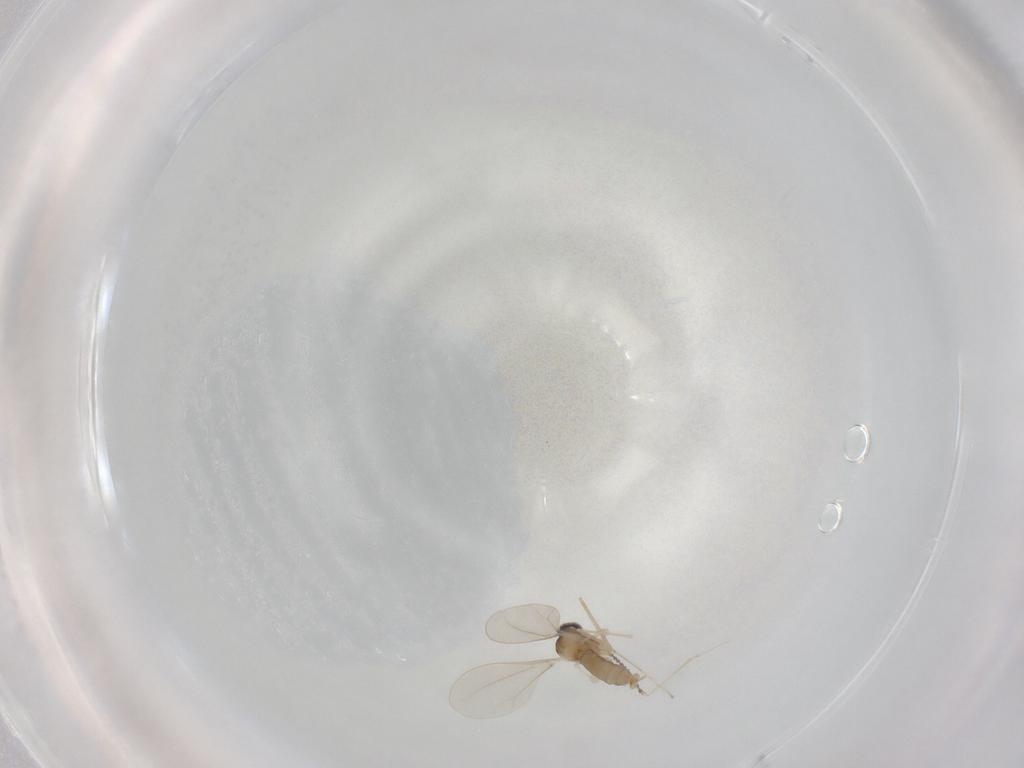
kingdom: Animalia
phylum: Arthropoda
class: Insecta
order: Diptera
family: Cecidomyiidae
